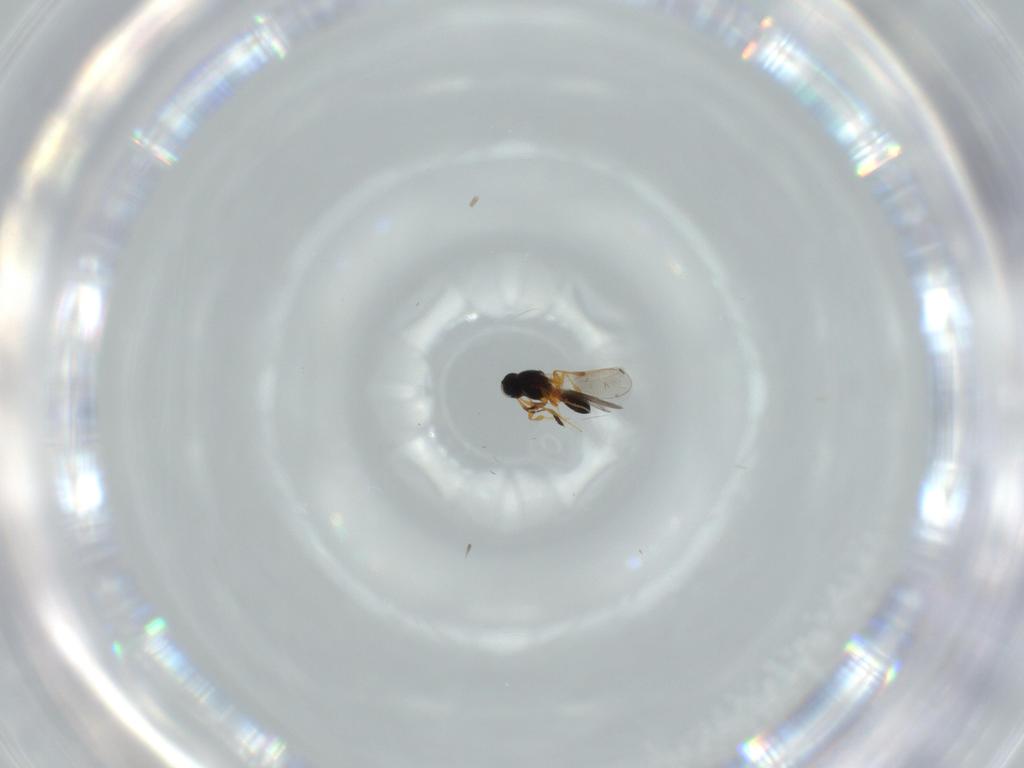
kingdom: Animalia
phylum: Arthropoda
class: Insecta
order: Hymenoptera
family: Platygastridae
